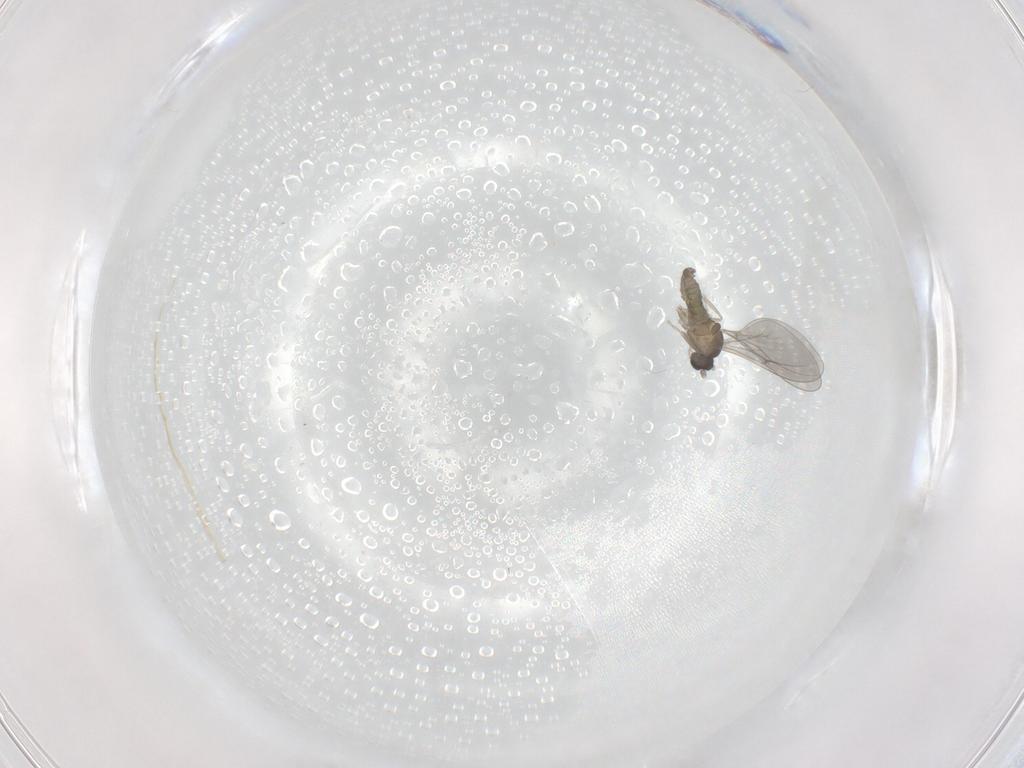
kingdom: Animalia
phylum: Arthropoda
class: Insecta
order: Diptera
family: Cecidomyiidae
